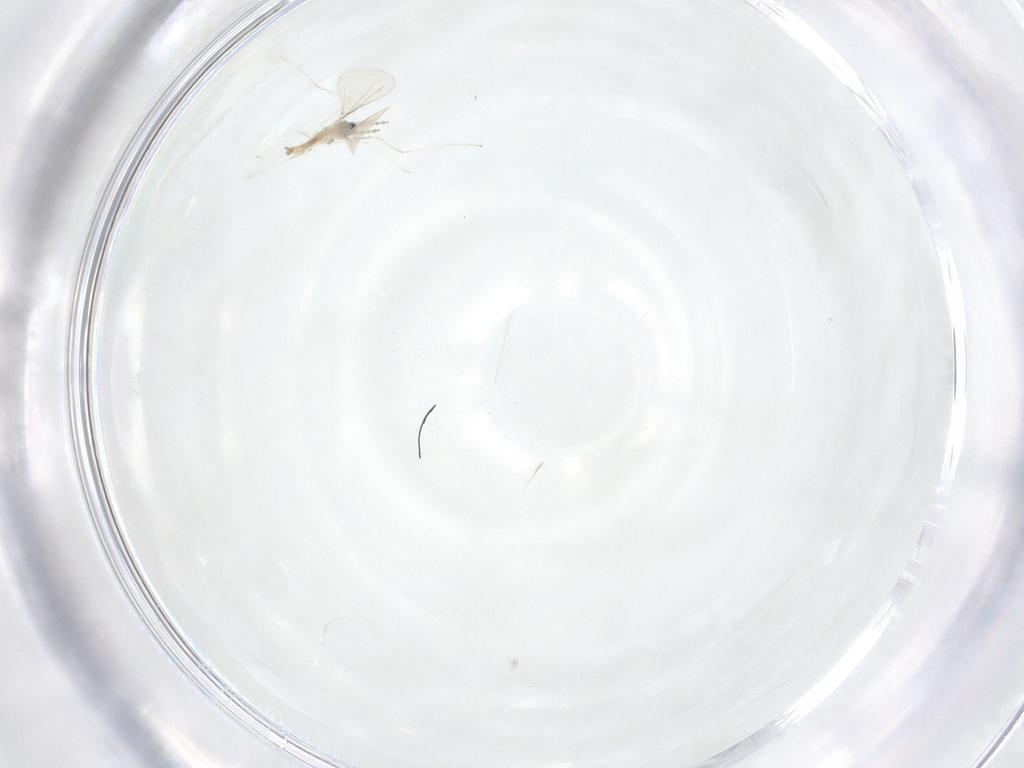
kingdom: Animalia
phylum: Arthropoda
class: Insecta
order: Diptera
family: Cecidomyiidae
